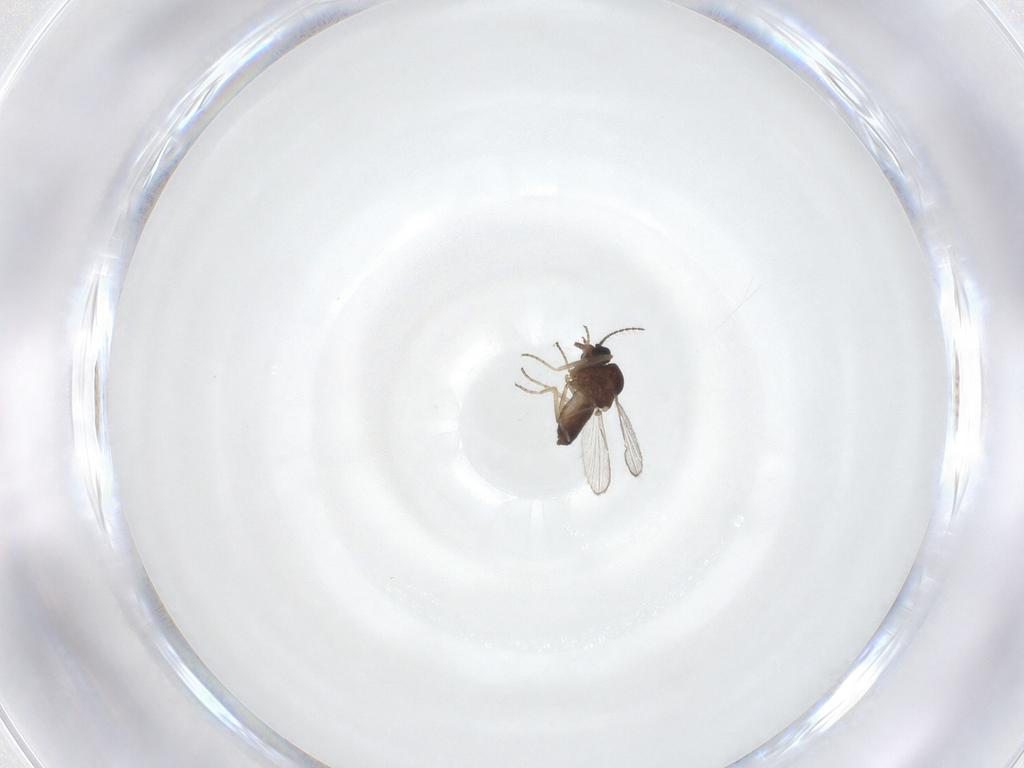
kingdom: Animalia
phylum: Arthropoda
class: Insecta
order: Diptera
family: Ceratopogonidae
